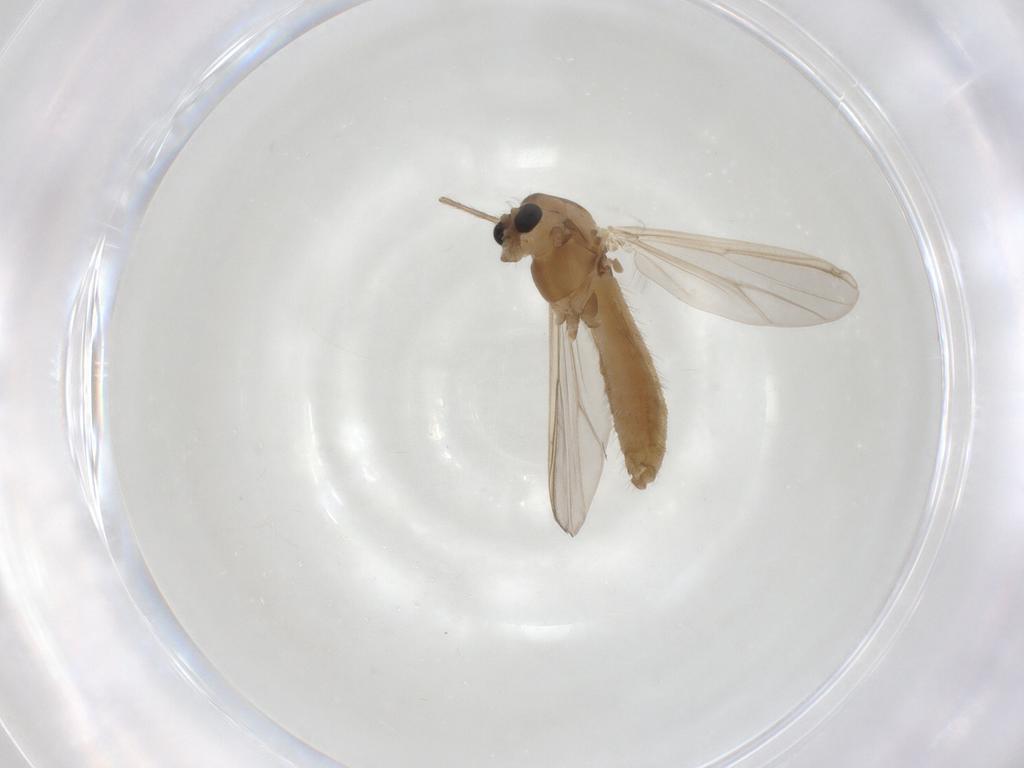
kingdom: Animalia
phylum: Arthropoda
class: Insecta
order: Diptera
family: Chironomidae
